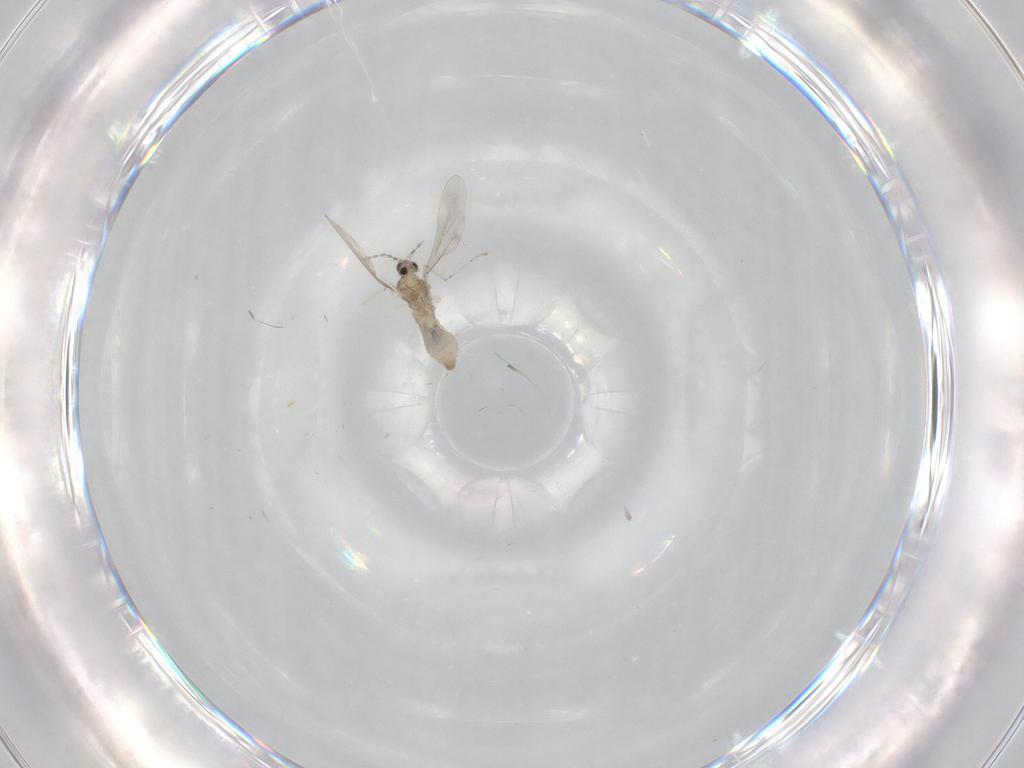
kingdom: Animalia
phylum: Arthropoda
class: Insecta
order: Diptera
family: Cecidomyiidae
